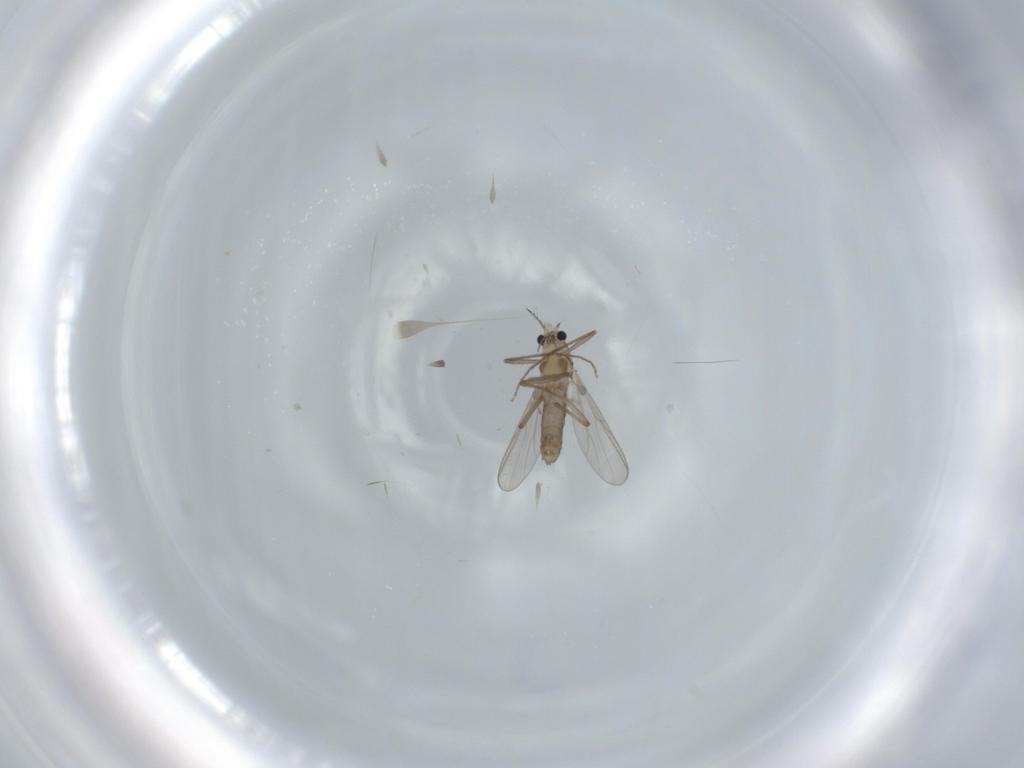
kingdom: Animalia
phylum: Arthropoda
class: Insecta
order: Diptera
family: Chironomidae
